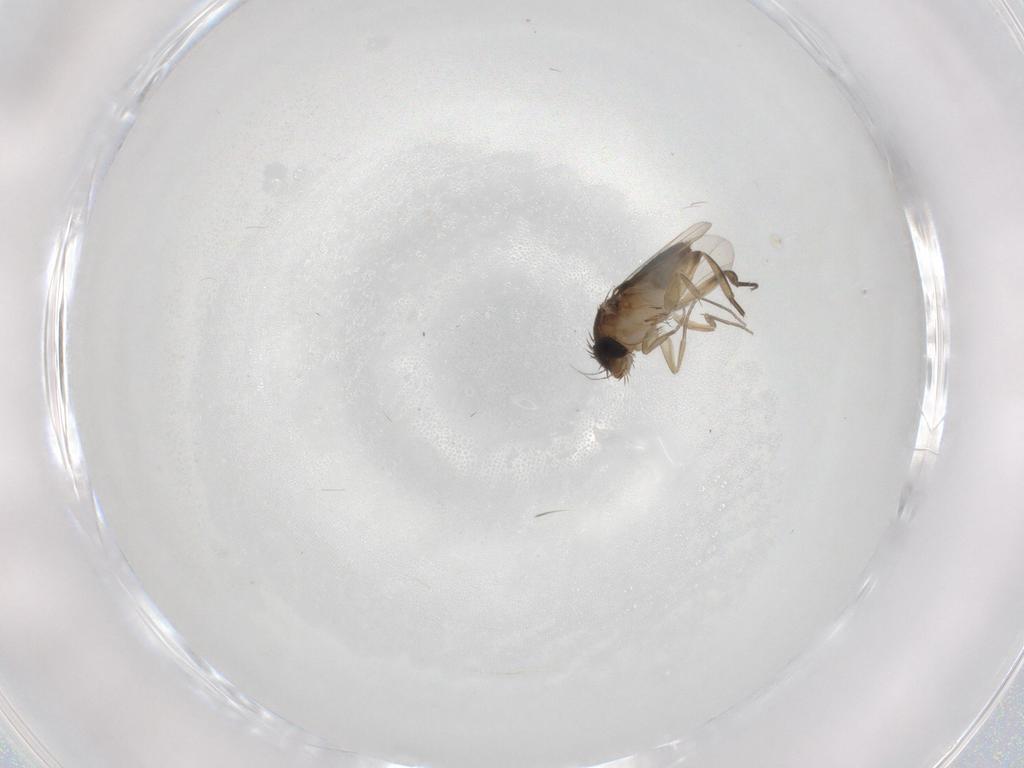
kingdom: Animalia
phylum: Arthropoda
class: Insecta
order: Diptera
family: Phoridae
